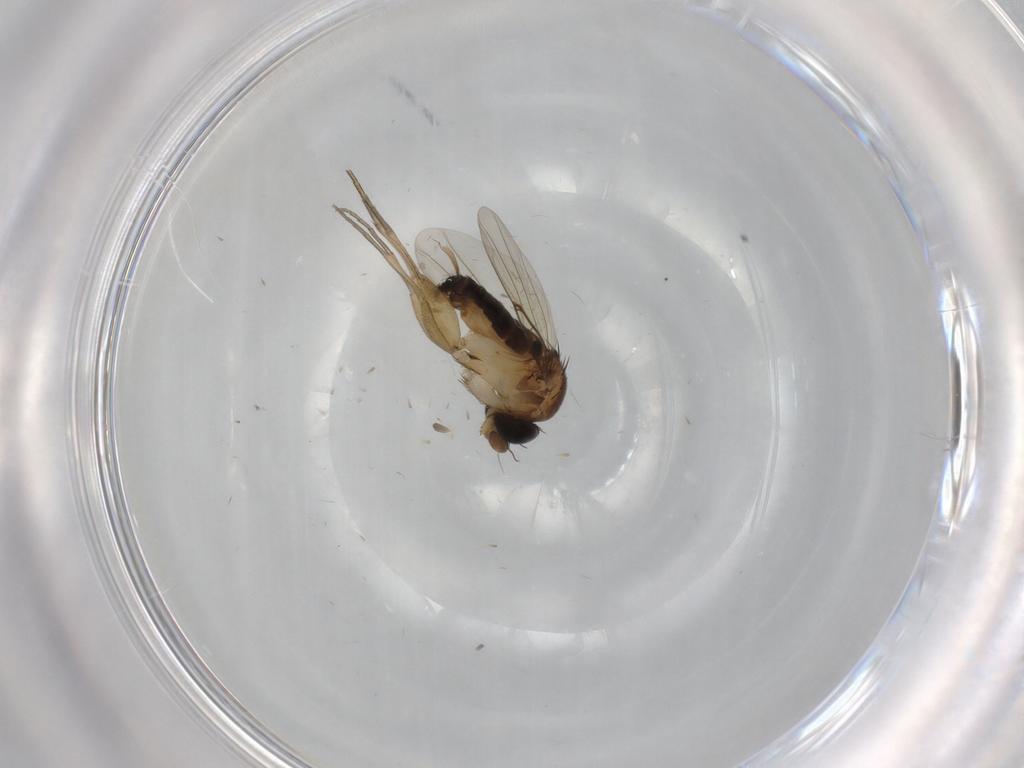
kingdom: Animalia
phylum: Arthropoda
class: Insecta
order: Diptera
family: Phoridae
